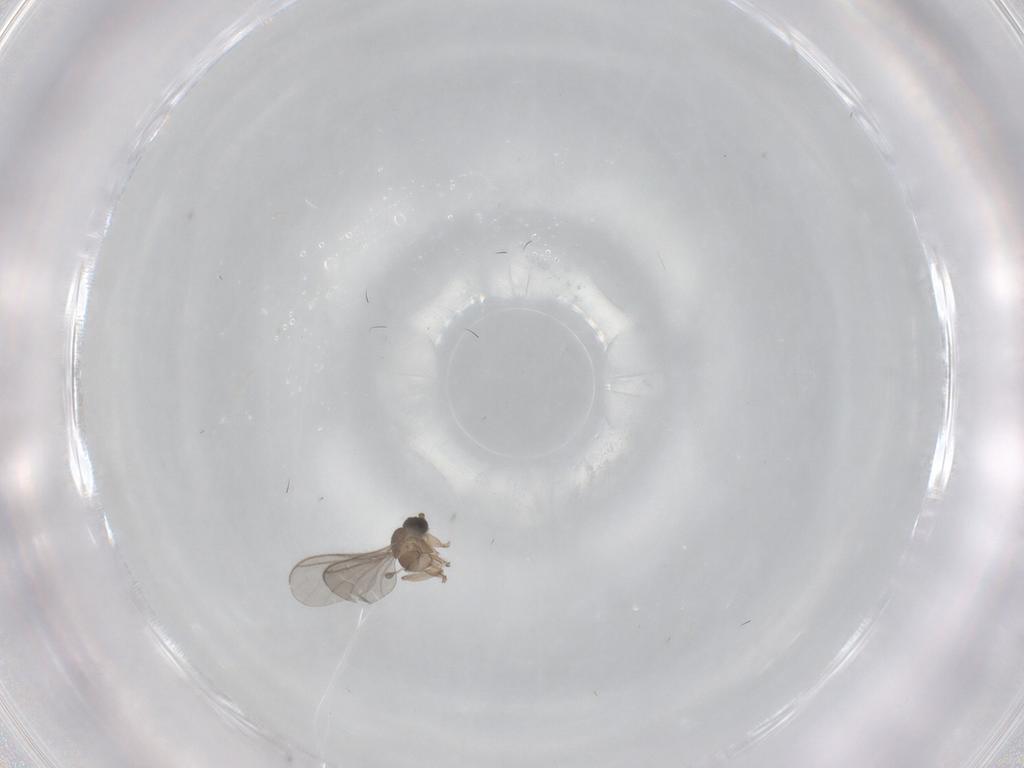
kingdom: Animalia
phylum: Arthropoda
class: Insecta
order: Diptera
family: Sciaridae
